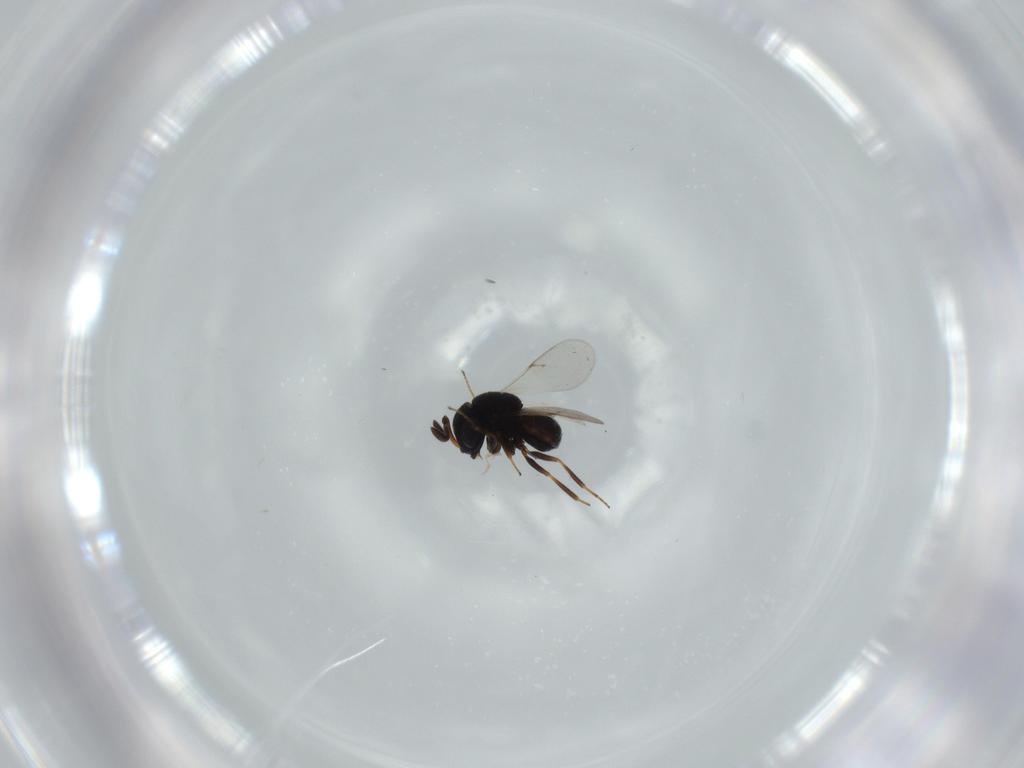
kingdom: Animalia
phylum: Arthropoda
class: Insecta
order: Hymenoptera
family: Scelionidae
